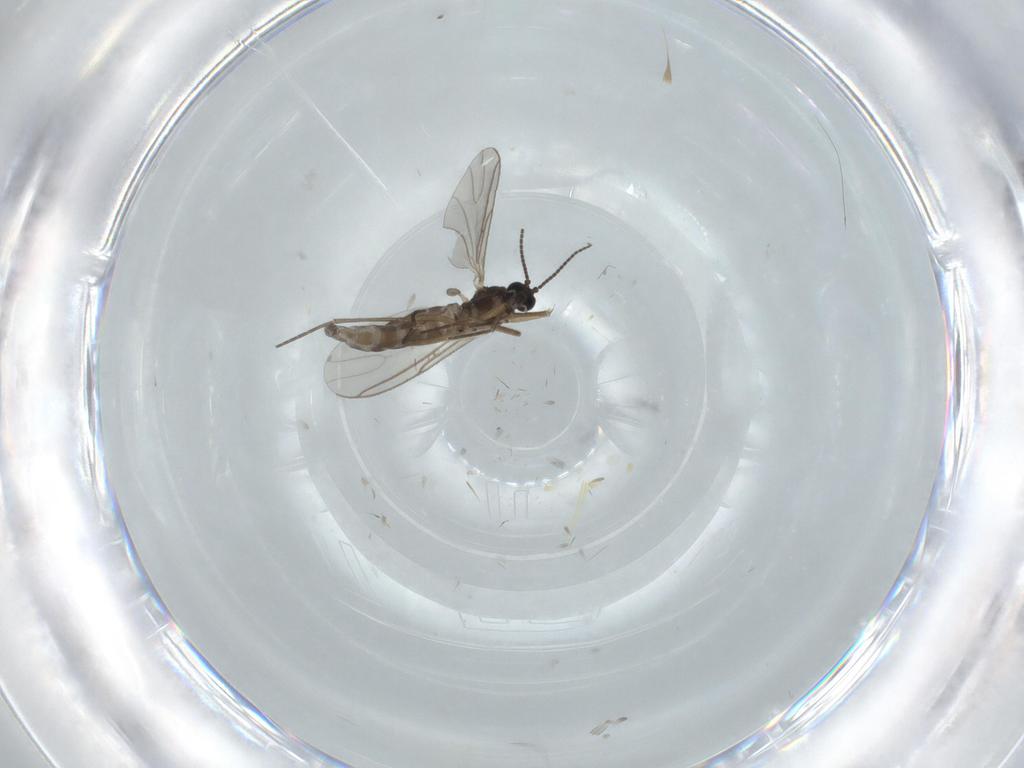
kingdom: Animalia
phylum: Arthropoda
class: Insecta
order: Diptera
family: Sciaridae
